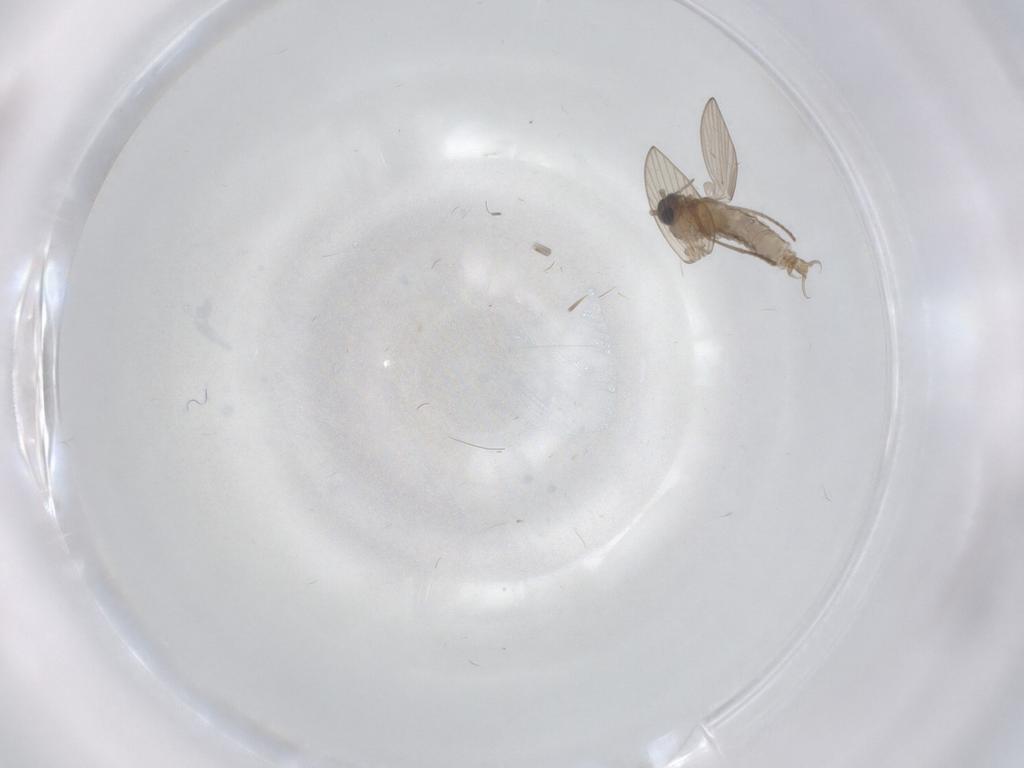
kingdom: Animalia
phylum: Arthropoda
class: Insecta
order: Diptera
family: Psychodidae
